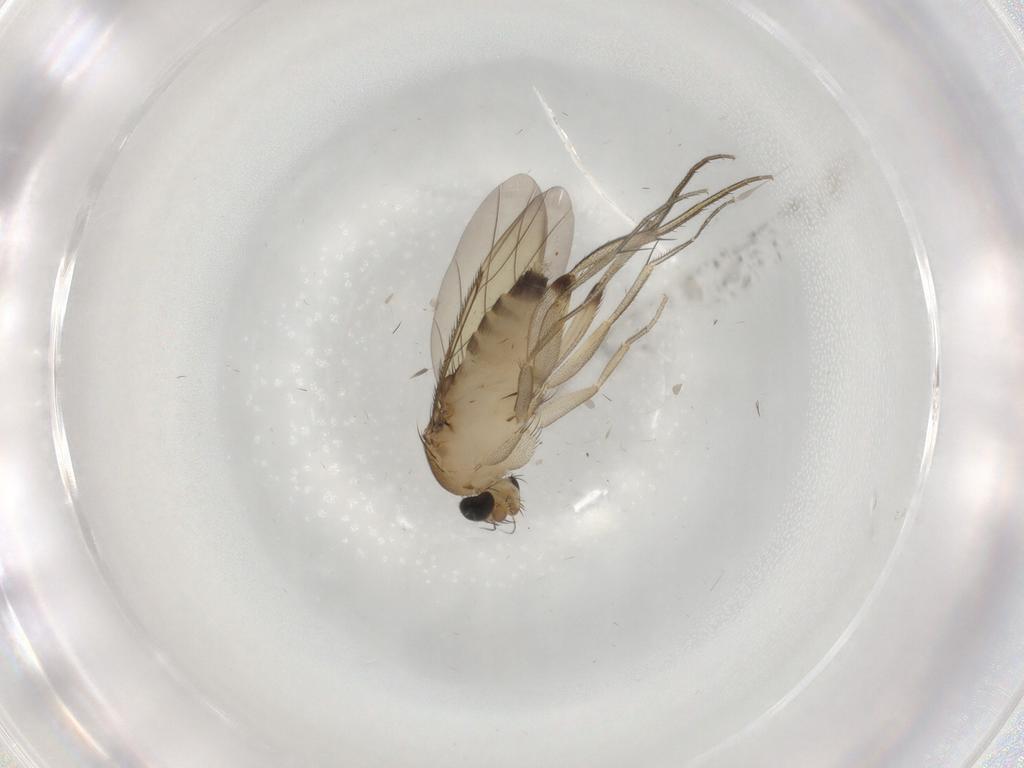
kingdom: Animalia
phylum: Arthropoda
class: Insecta
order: Diptera
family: Phoridae
